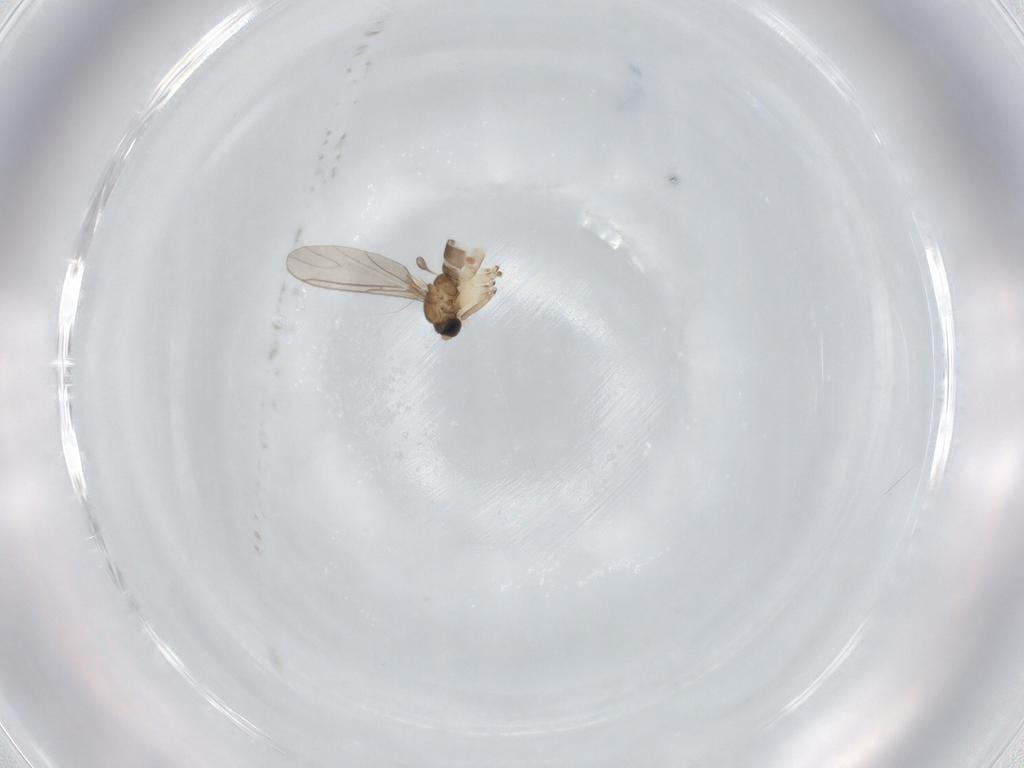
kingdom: Animalia
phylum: Arthropoda
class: Insecta
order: Diptera
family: Sciaridae
